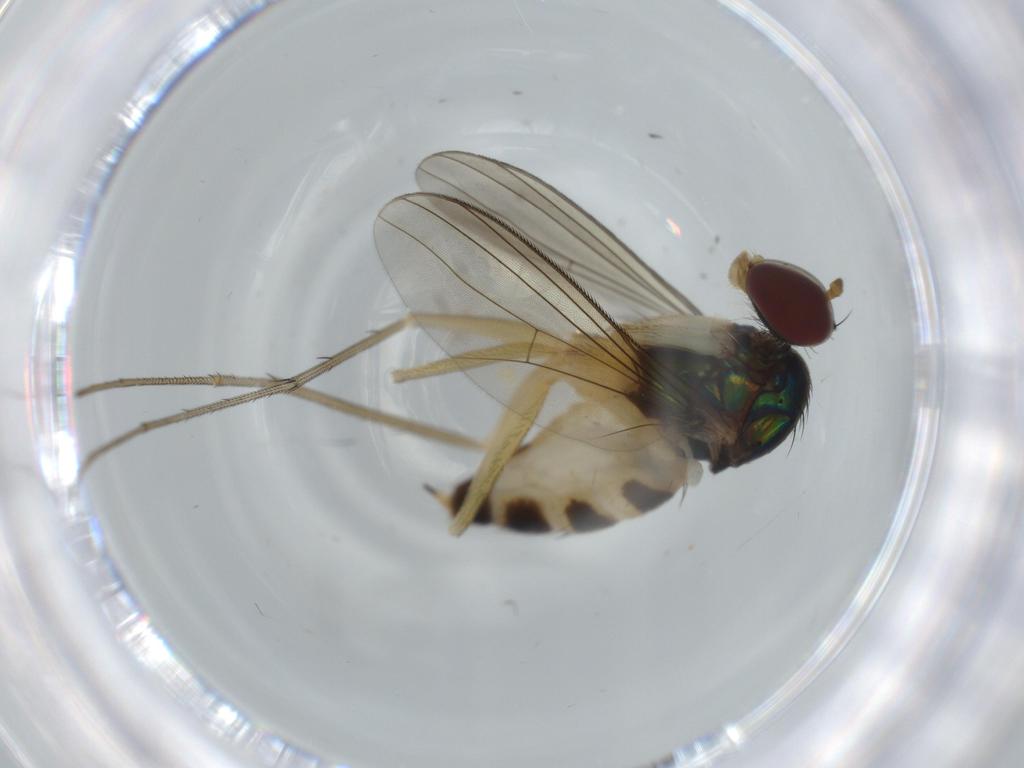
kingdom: Animalia
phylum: Arthropoda
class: Insecta
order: Diptera
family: Dolichopodidae
